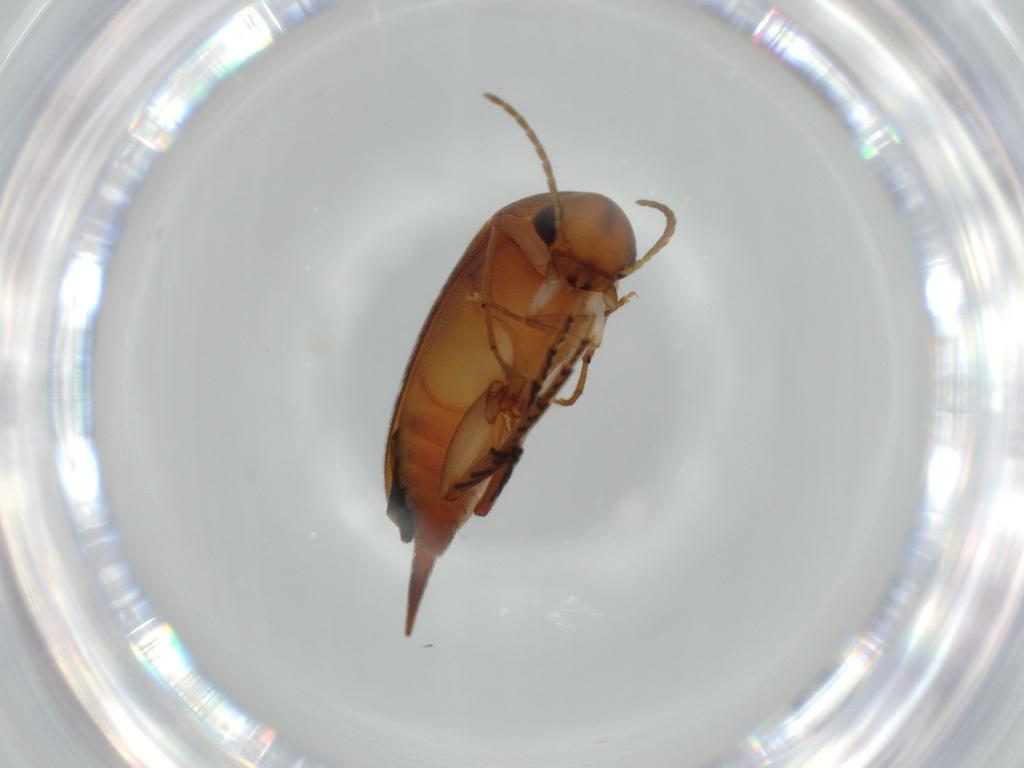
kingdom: Animalia
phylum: Arthropoda
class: Insecta
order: Coleoptera
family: Mordellidae
